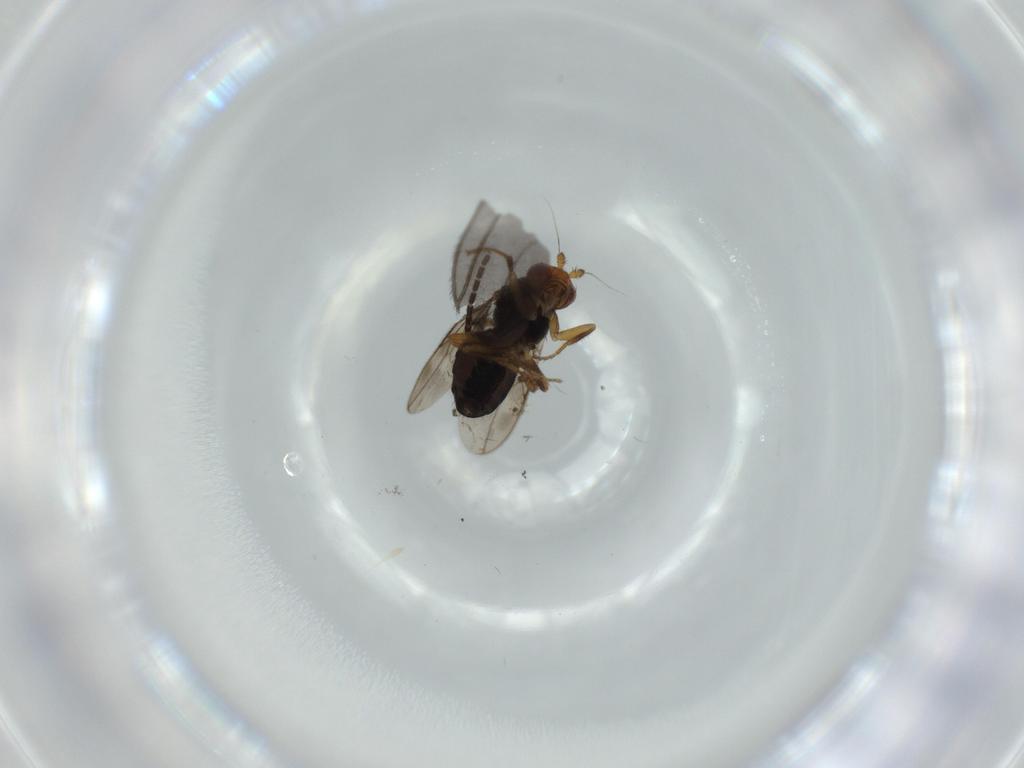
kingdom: Animalia
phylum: Arthropoda
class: Insecta
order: Diptera
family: Sciaridae
